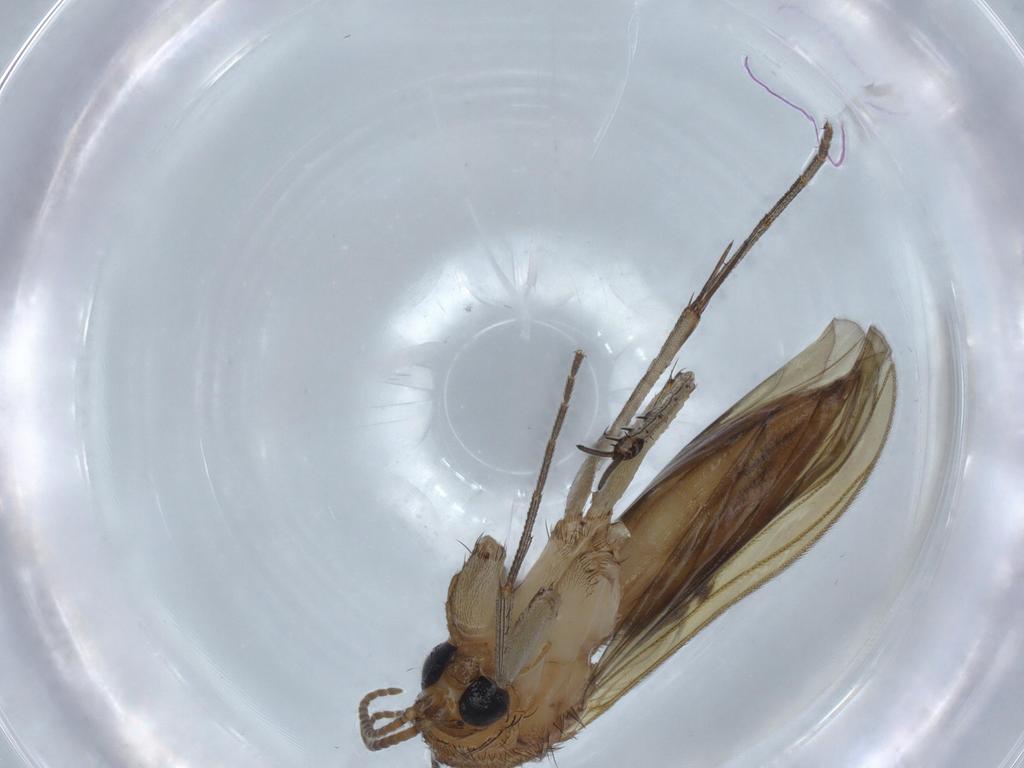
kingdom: Animalia
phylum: Arthropoda
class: Insecta
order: Diptera
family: Mycetophilidae
